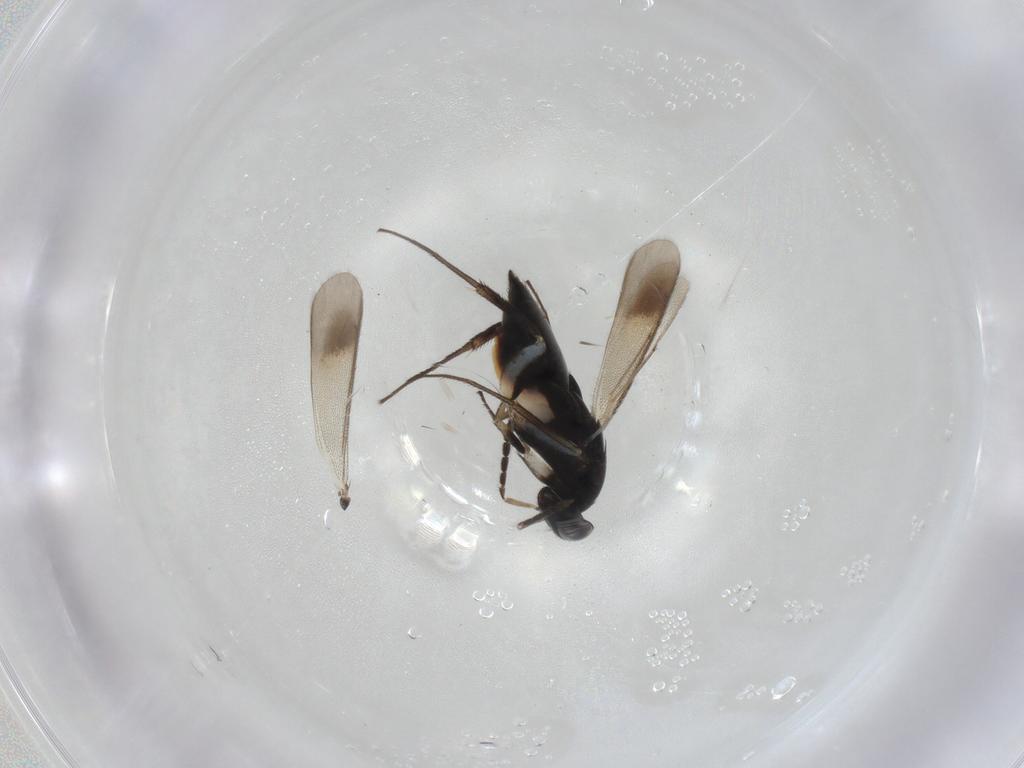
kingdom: Animalia
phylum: Arthropoda
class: Insecta
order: Hymenoptera
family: Eulophidae
